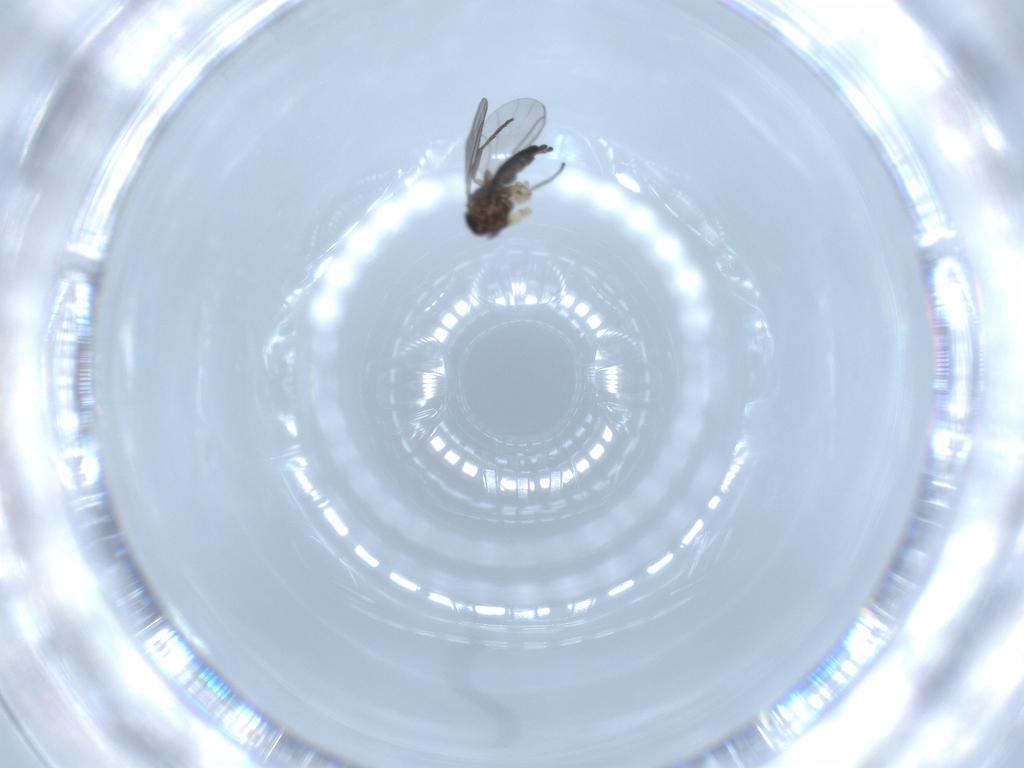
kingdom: Animalia
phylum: Arthropoda
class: Insecta
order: Diptera
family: Sciaridae
